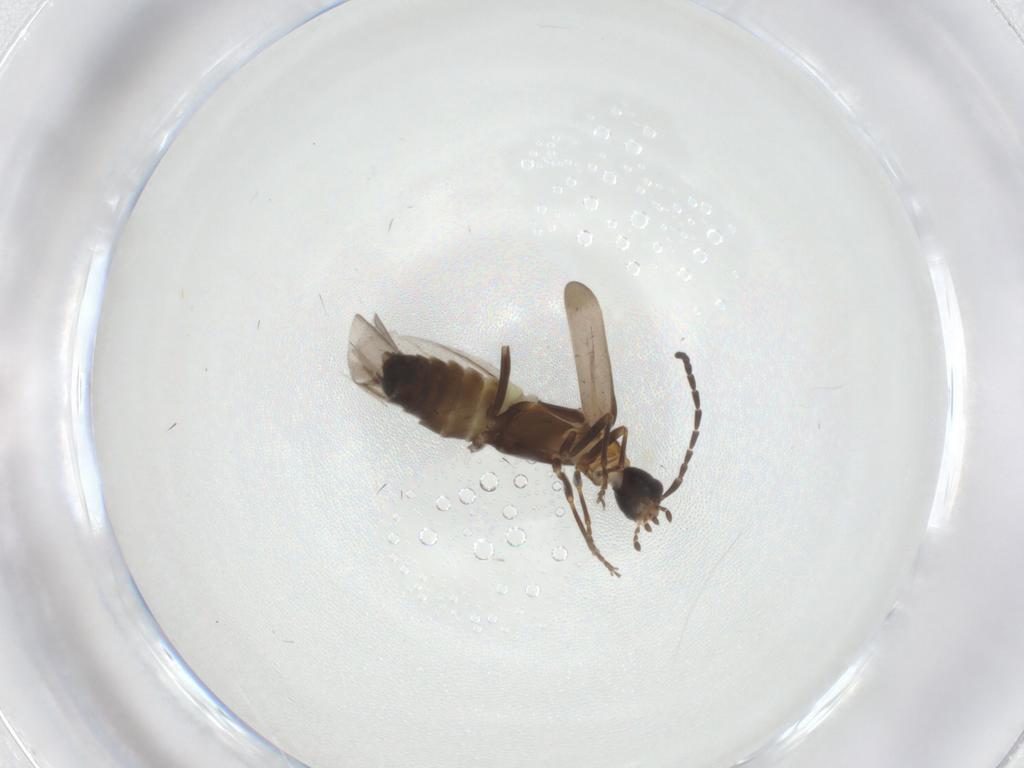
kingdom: Animalia
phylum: Arthropoda
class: Insecta
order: Coleoptera
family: Cantharidae
